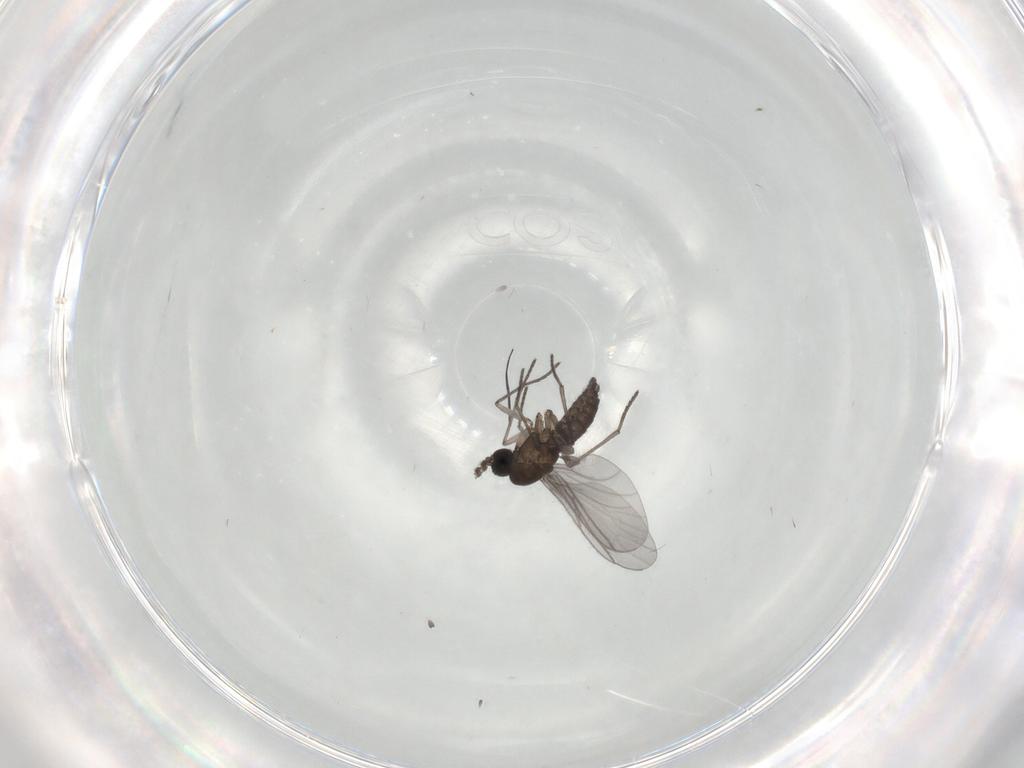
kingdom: Animalia
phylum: Arthropoda
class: Insecta
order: Diptera
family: Sciaridae
